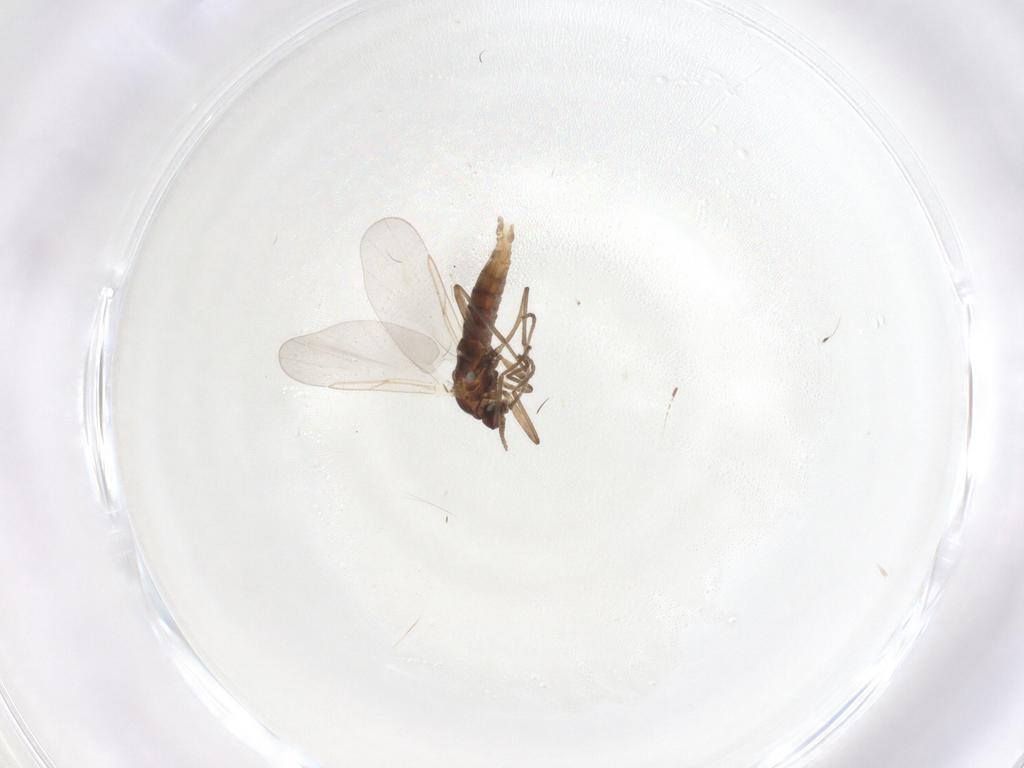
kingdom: Animalia
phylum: Arthropoda
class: Insecta
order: Diptera
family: Cecidomyiidae
